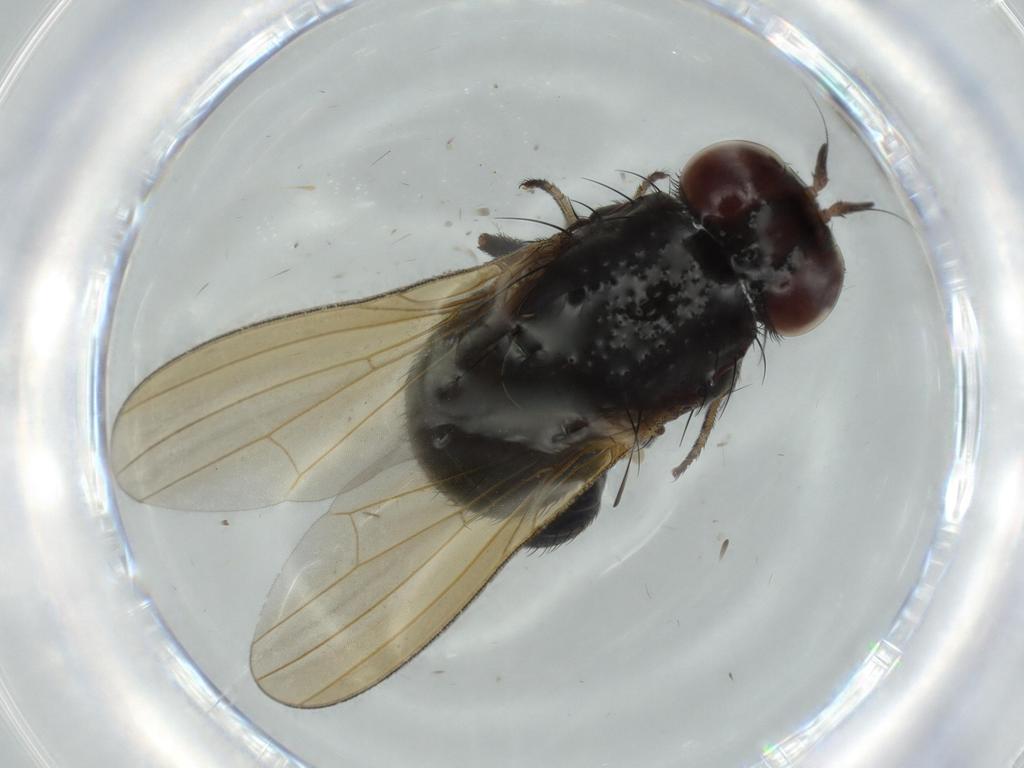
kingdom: Animalia
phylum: Arthropoda
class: Insecta
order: Diptera
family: Lauxaniidae
